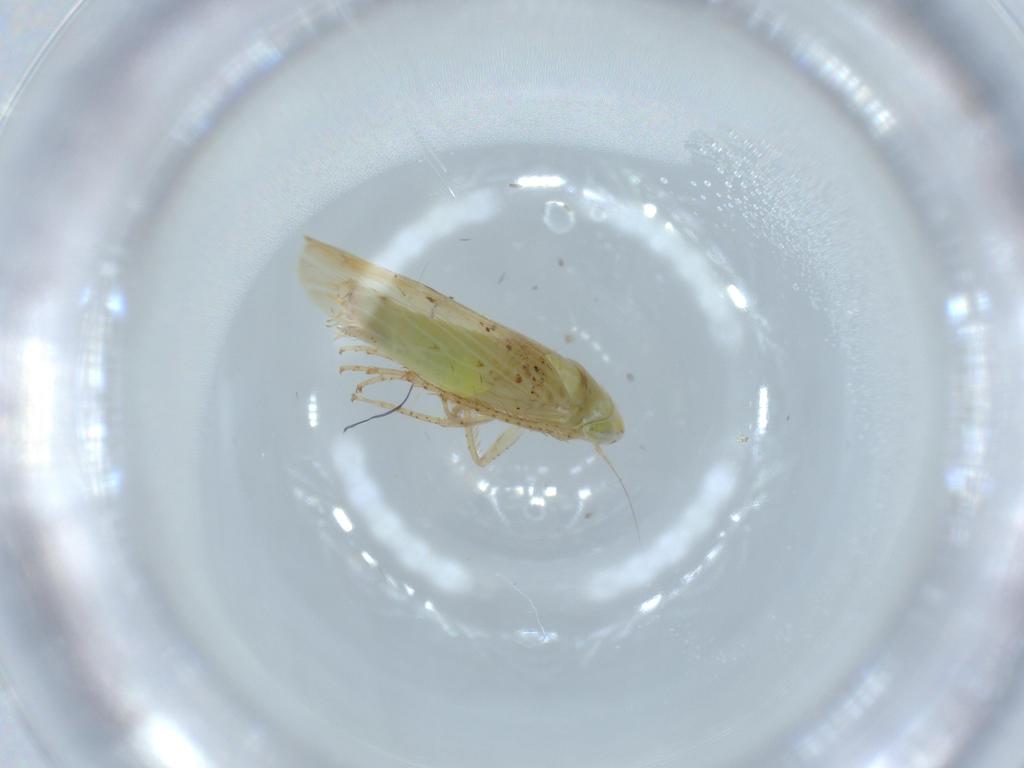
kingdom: Animalia
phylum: Arthropoda
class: Insecta
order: Hemiptera
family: Cicadellidae
